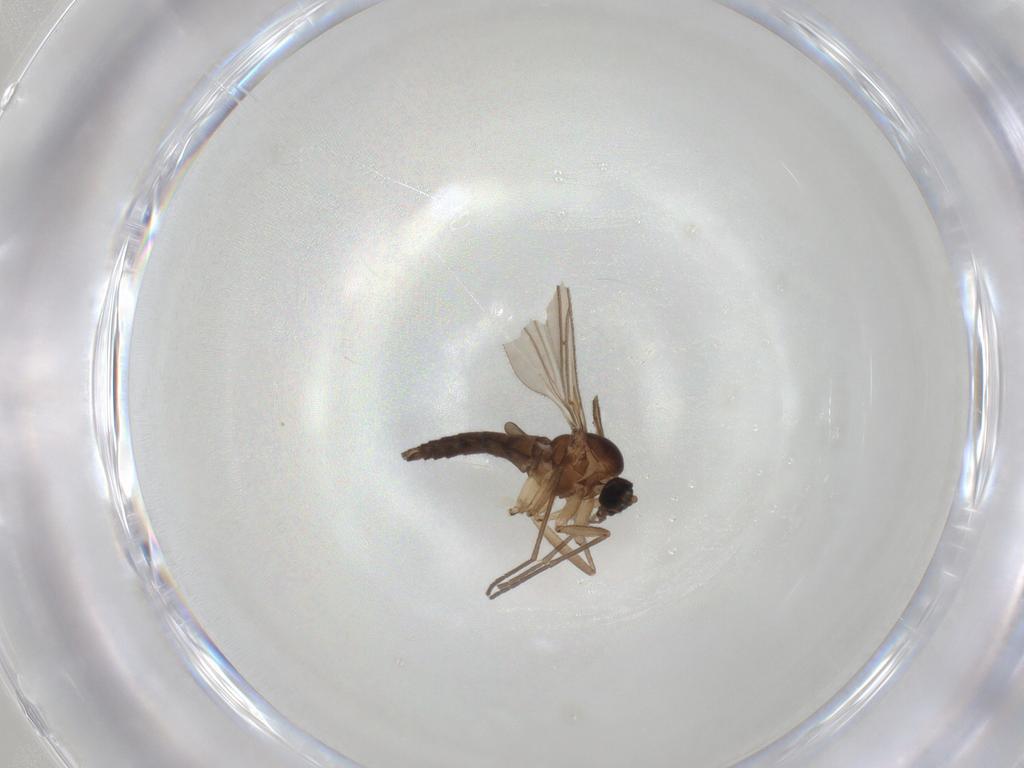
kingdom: Animalia
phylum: Arthropoda
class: Insecta
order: Diptera
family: Sciaridae
